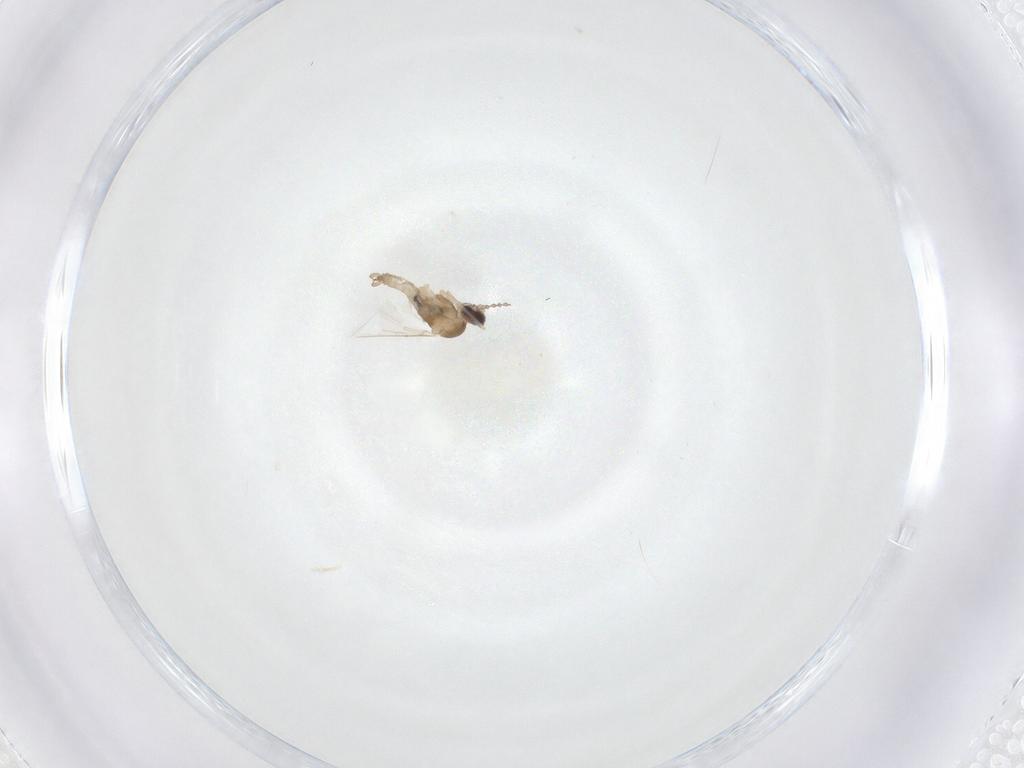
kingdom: Animalia
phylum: Arthropoda
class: Insecta
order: Diptera
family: Cecidomyiidae
